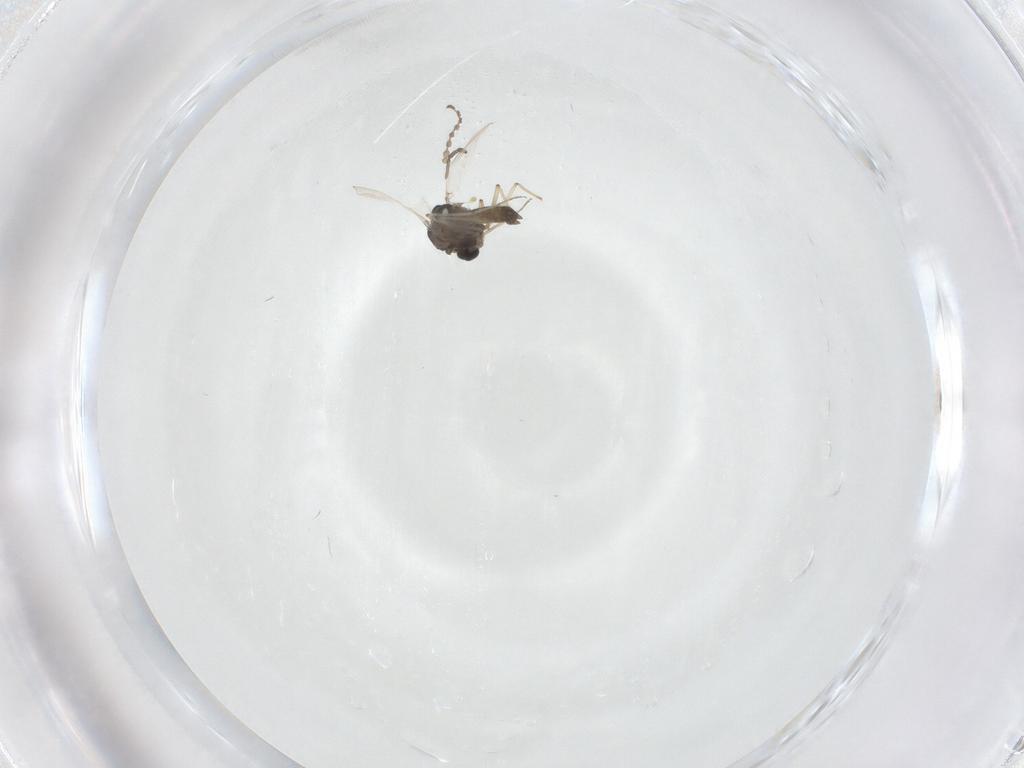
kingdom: Animalia
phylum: Arthropoda
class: Insecta
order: Diptera
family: Chironomidae
